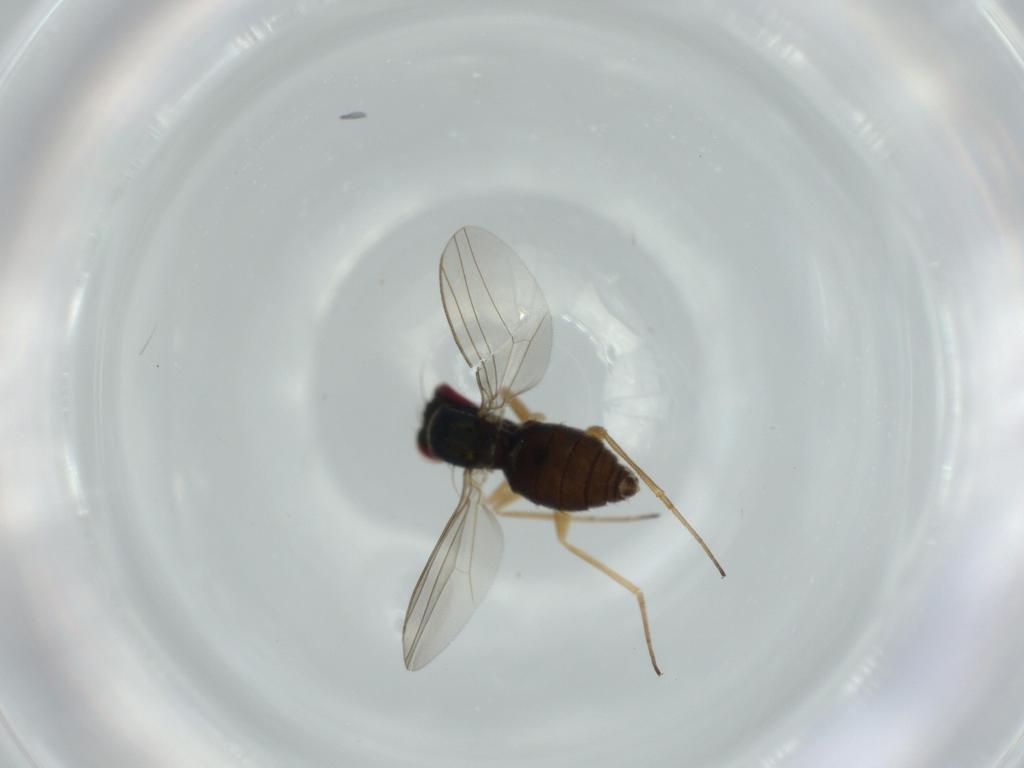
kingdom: Animalia
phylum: Arthropoda
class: Insecta
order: Diptera
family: Dolichopodidae
